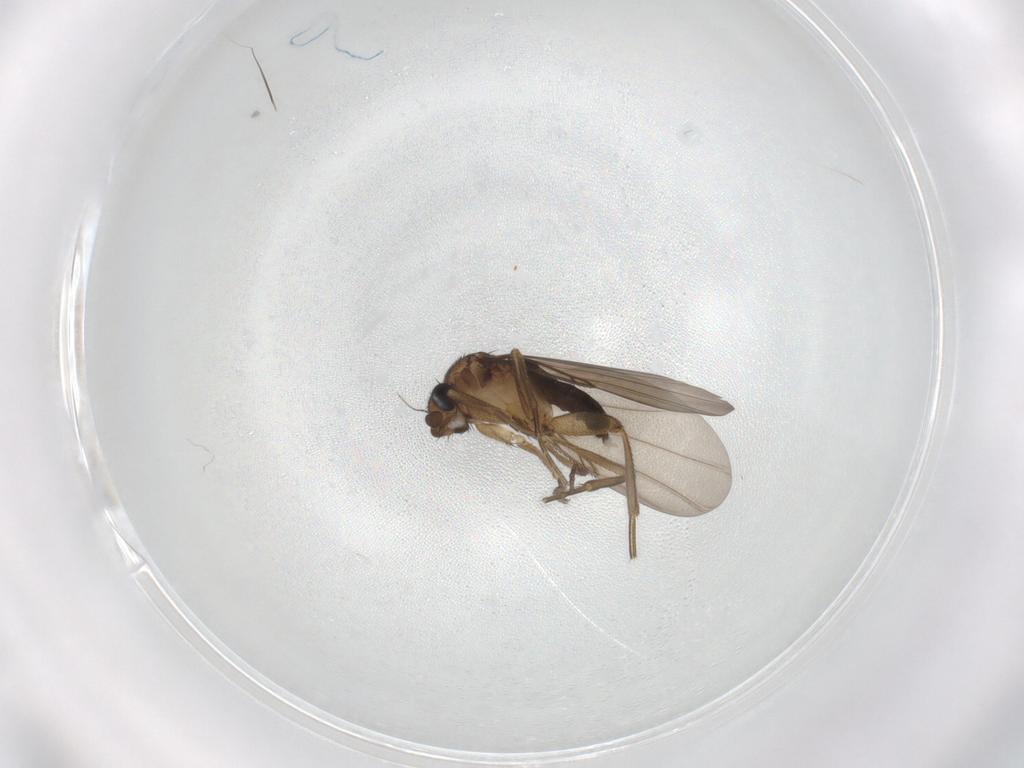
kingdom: Animalia
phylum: Arthropoda
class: Insecta
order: Diptera
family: Phoridae
